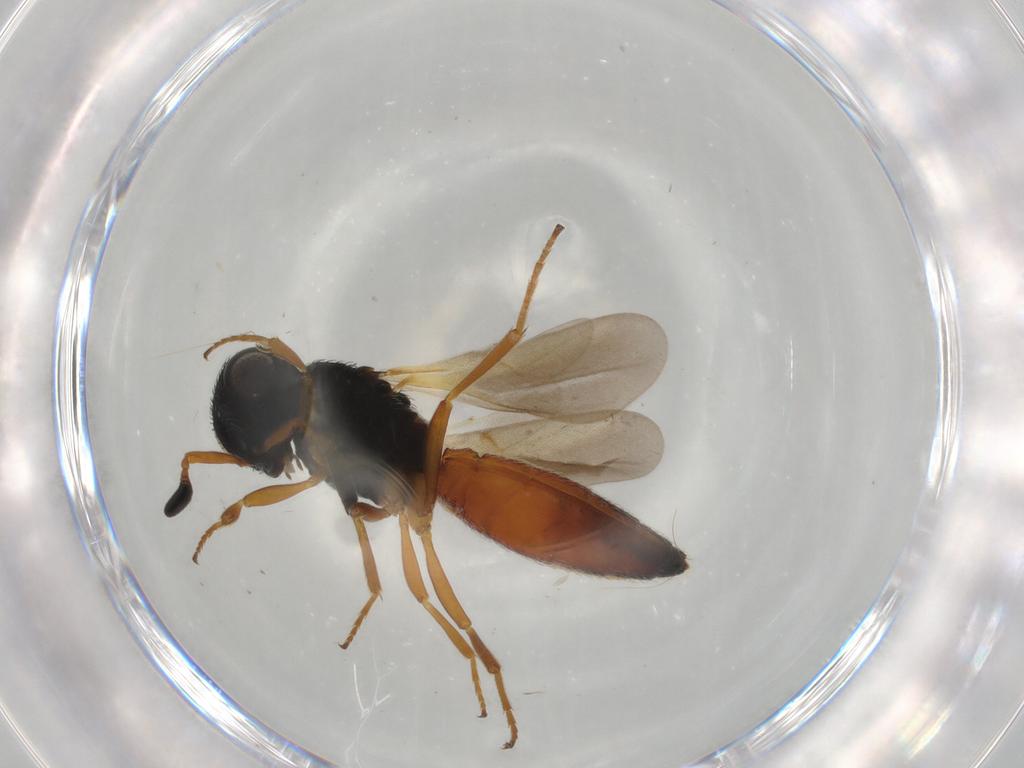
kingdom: Animalia
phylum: Arthropoda
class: Insecta
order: Hymenoptera
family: Scelionidae
